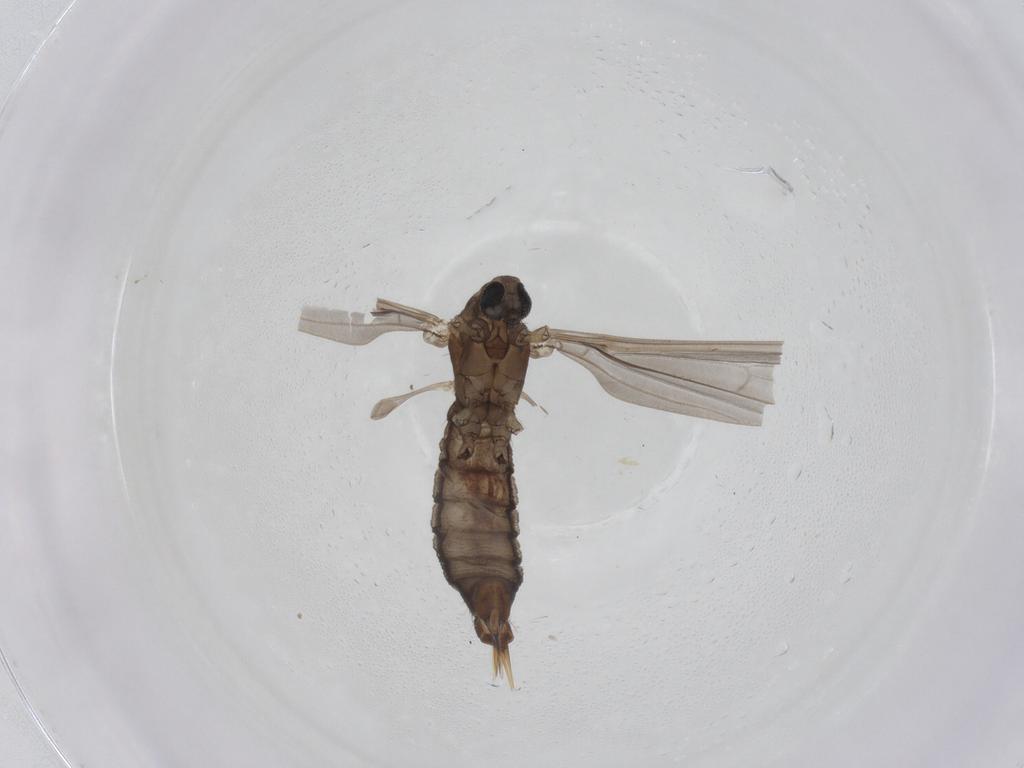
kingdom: Animalia
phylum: Arthropoda
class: Insecta
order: Diptera
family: Limoniidae
